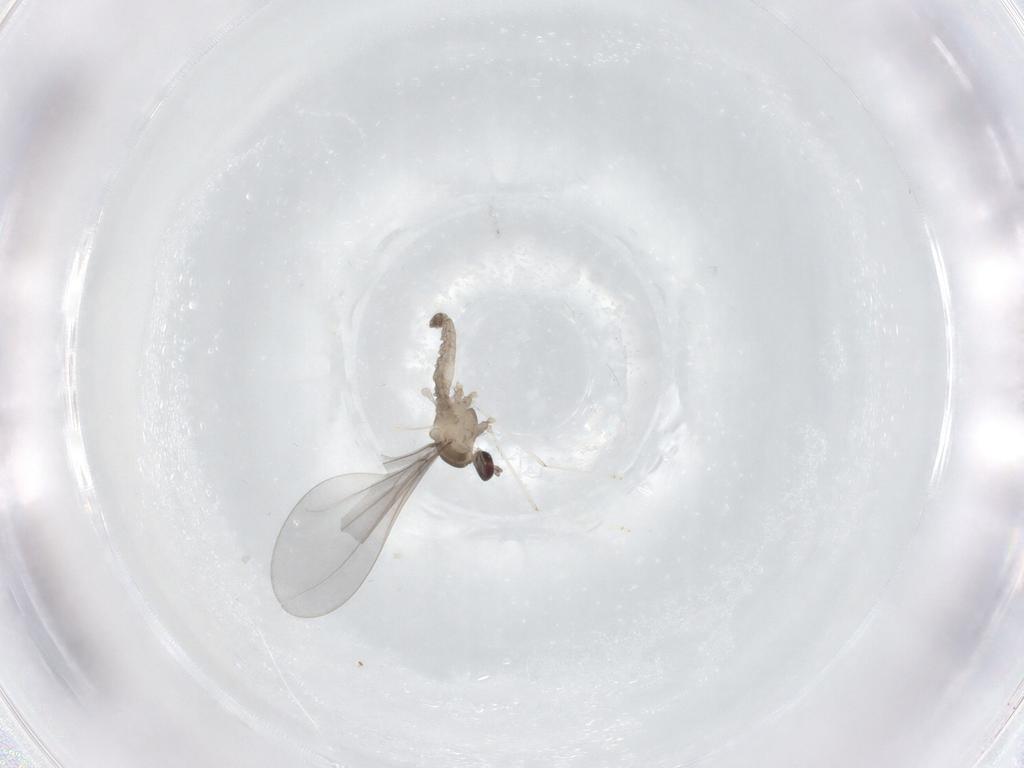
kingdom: Animalia
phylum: Arthropoda
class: Insecta
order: Diptera
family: Cecidomyiidae
